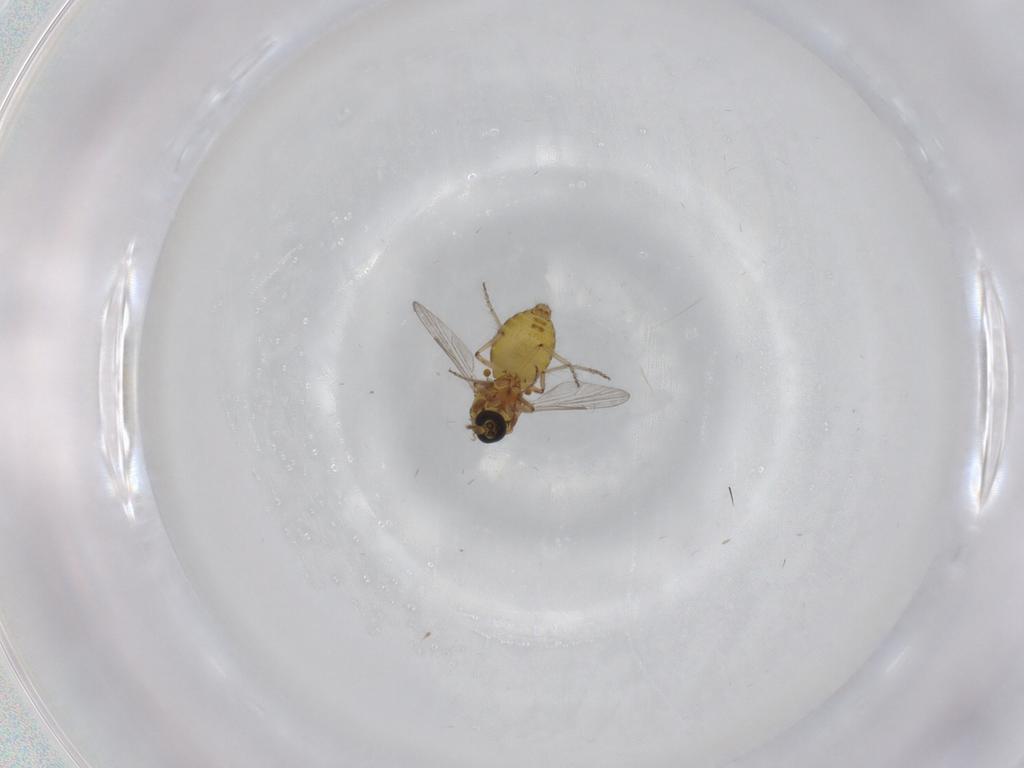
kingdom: Animalia
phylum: Arthropoda
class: Insecta
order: Diptera
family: Ceratopogonidae
